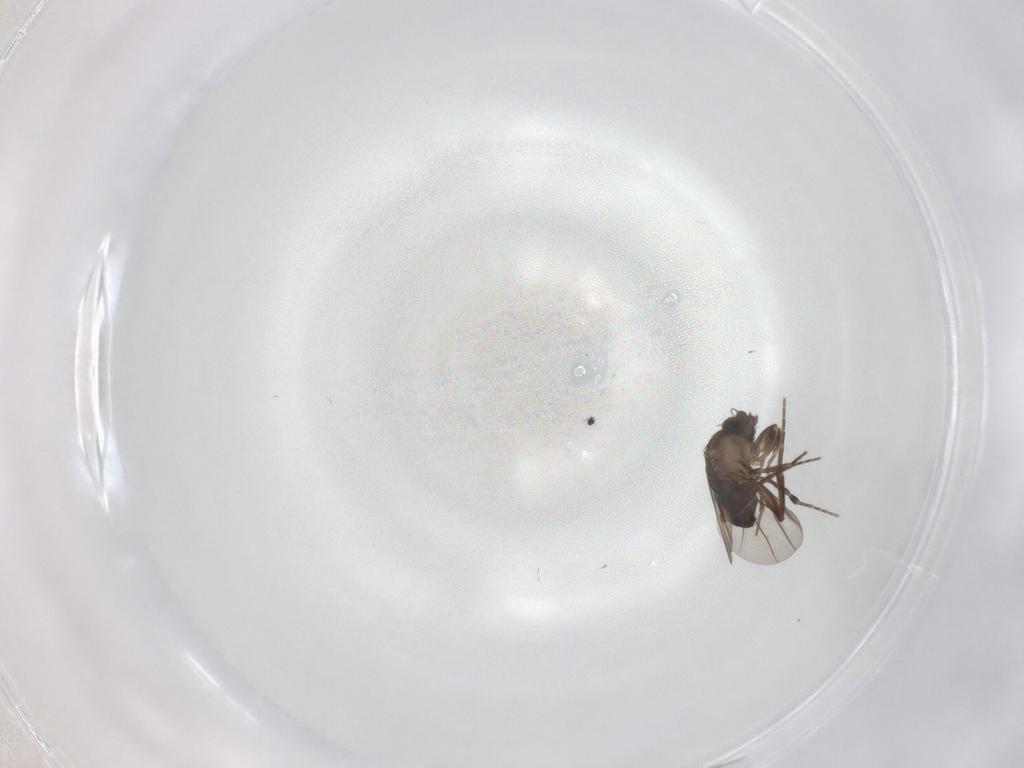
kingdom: Animalia
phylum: Arthropoda
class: Insecta
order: Diptera
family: Chironomidae
